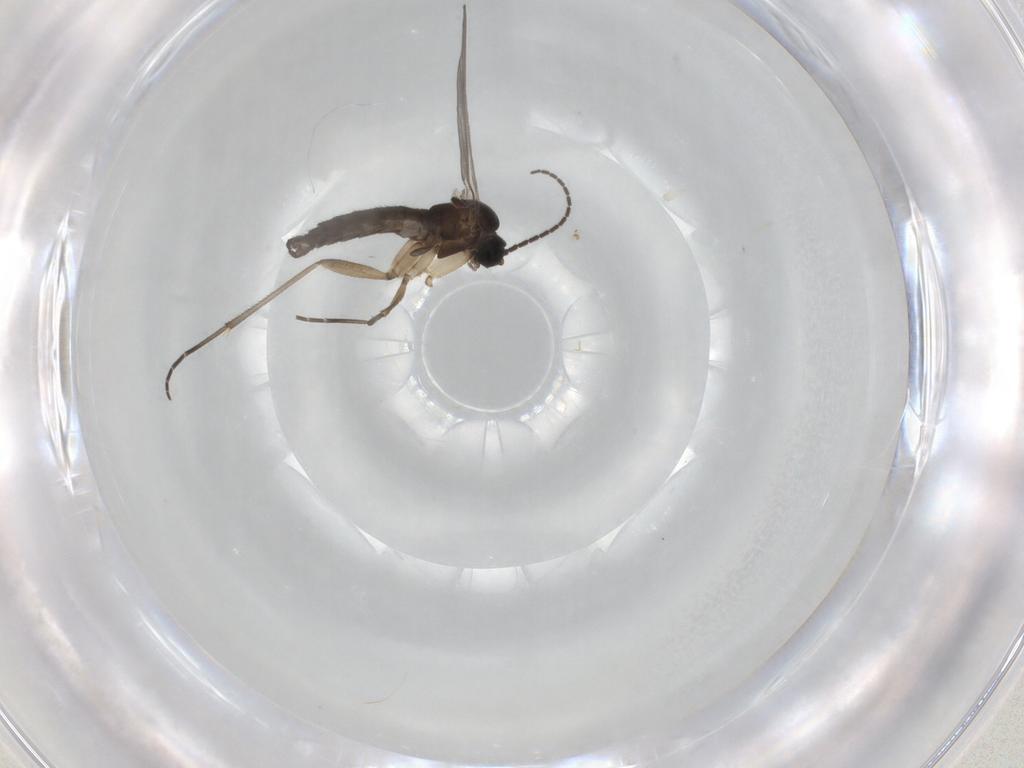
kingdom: Animalia
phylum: Arthropoda
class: Insecta
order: Diptera
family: Sciaridae
